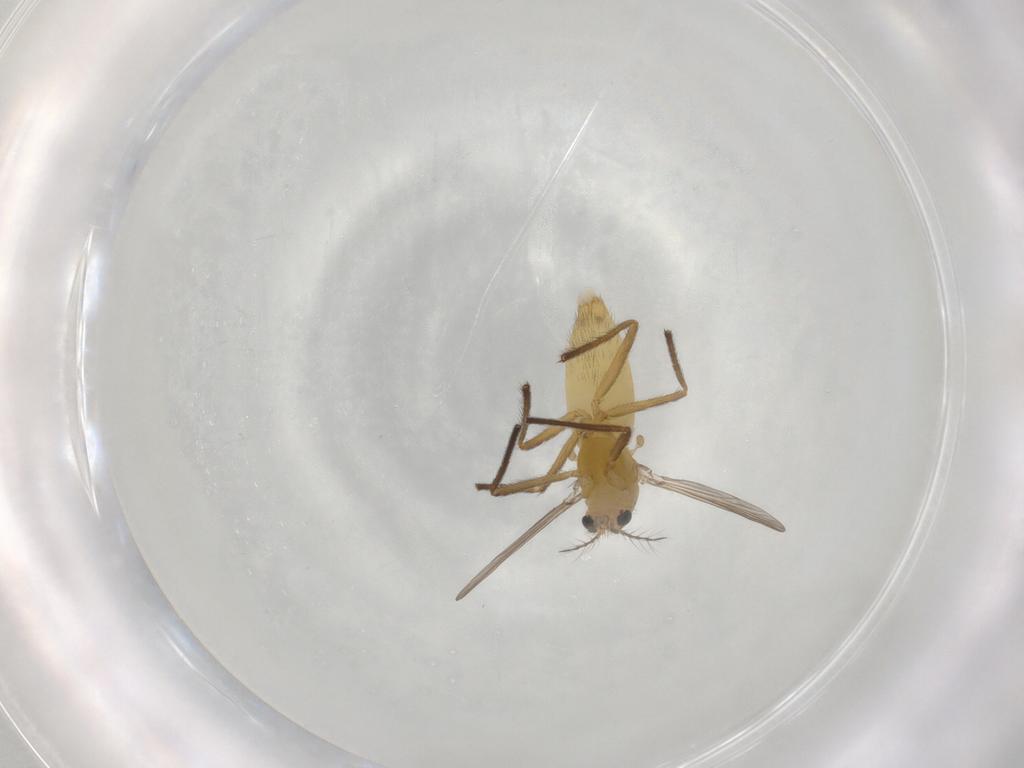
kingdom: Animalia
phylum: Arthropoda
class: Insecta
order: Diptera
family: Chironomidae
